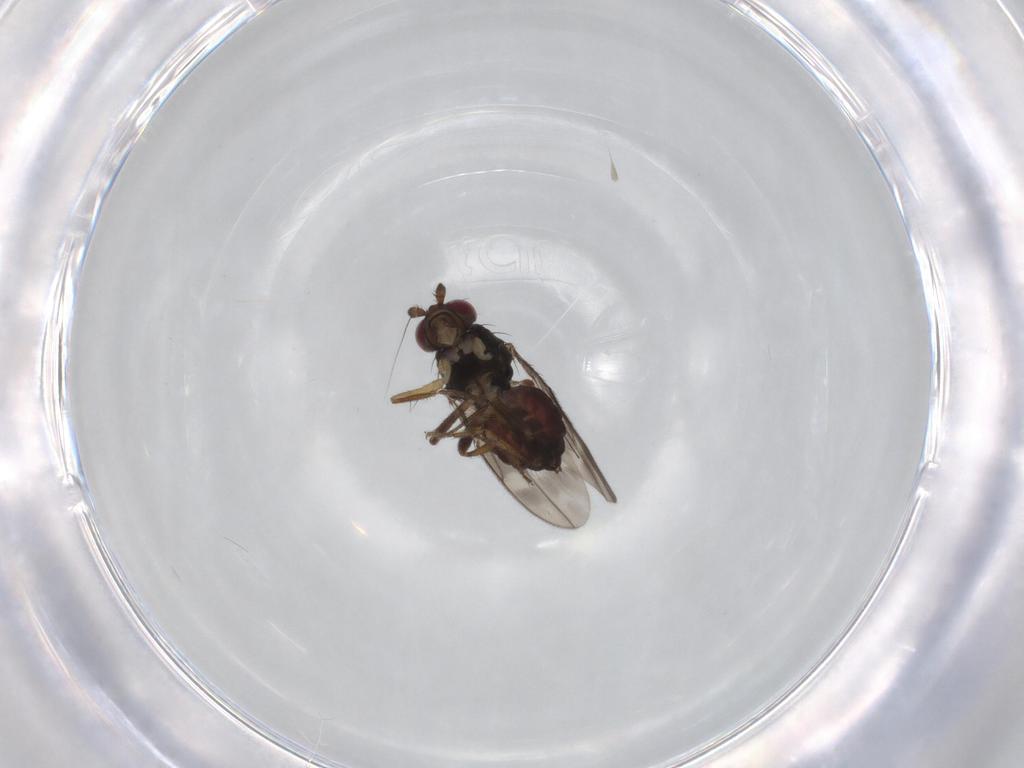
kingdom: Animalia
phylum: Arthropoda
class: Insecta
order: Diptera
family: Sphaeroceridae
